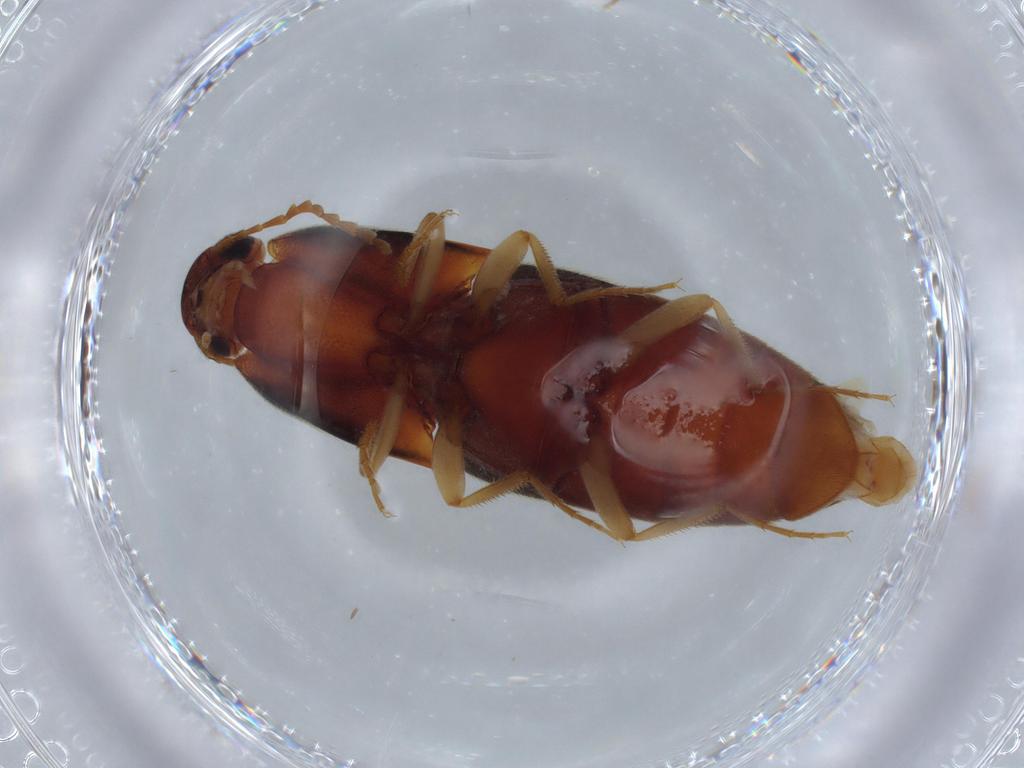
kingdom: Animalia
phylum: Arthropoda
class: Insecta
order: Coleoptera
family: Elateridae
